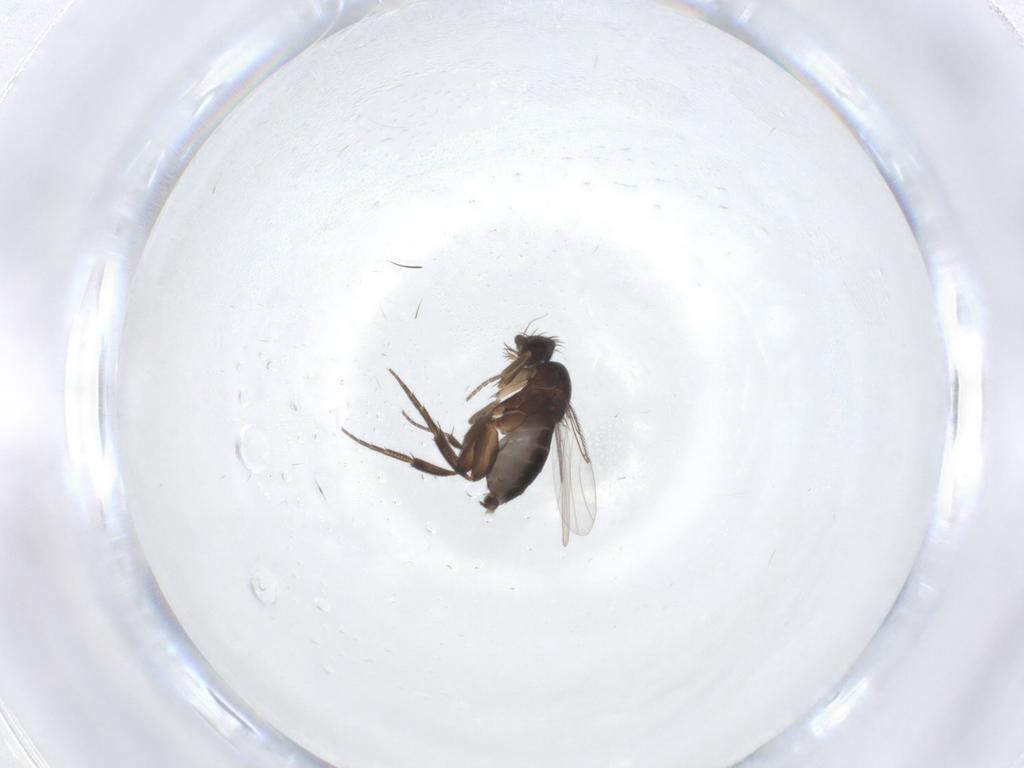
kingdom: Animalia
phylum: Arthropoda
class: Insecta
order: Diptera
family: Phoridae
